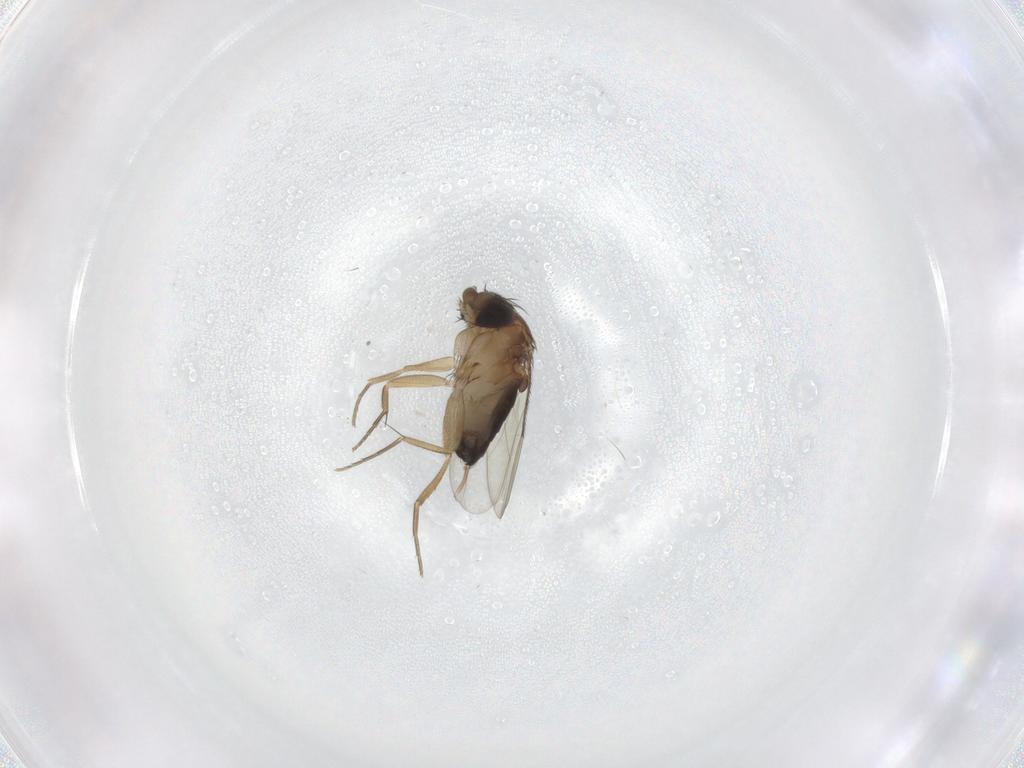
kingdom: Animalia
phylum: Arthropoda
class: Insecta
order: Diptera
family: Phoridae
